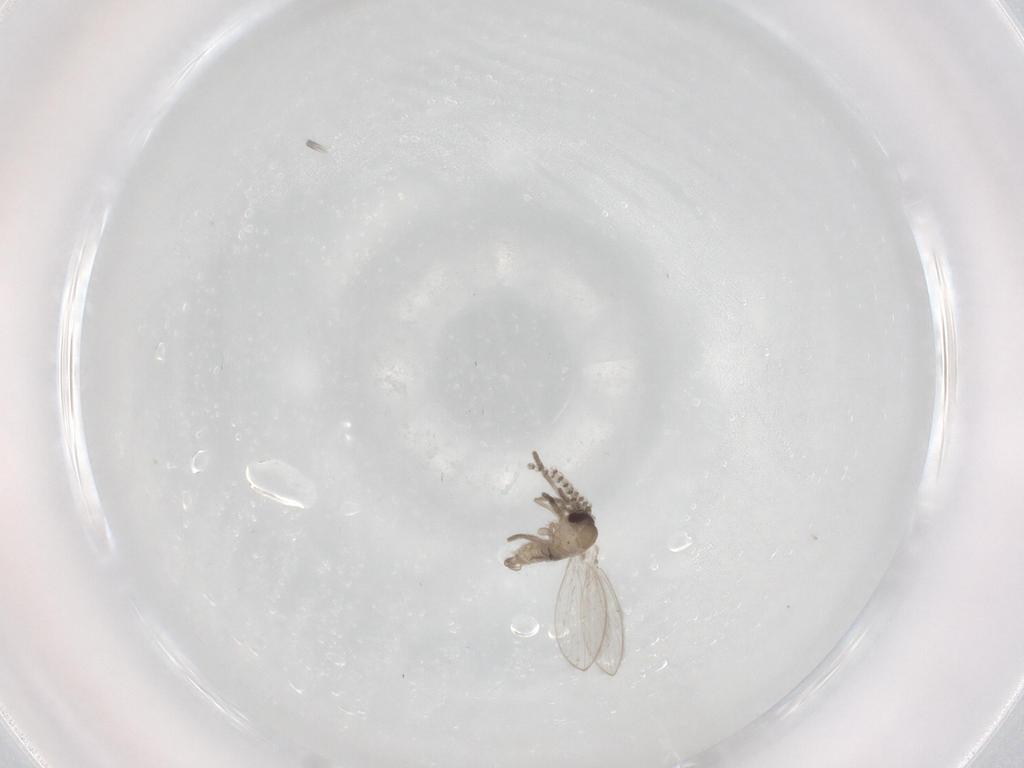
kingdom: Animalia
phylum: Arthropoda
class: Insecta
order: Diptera
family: Psychodidae
